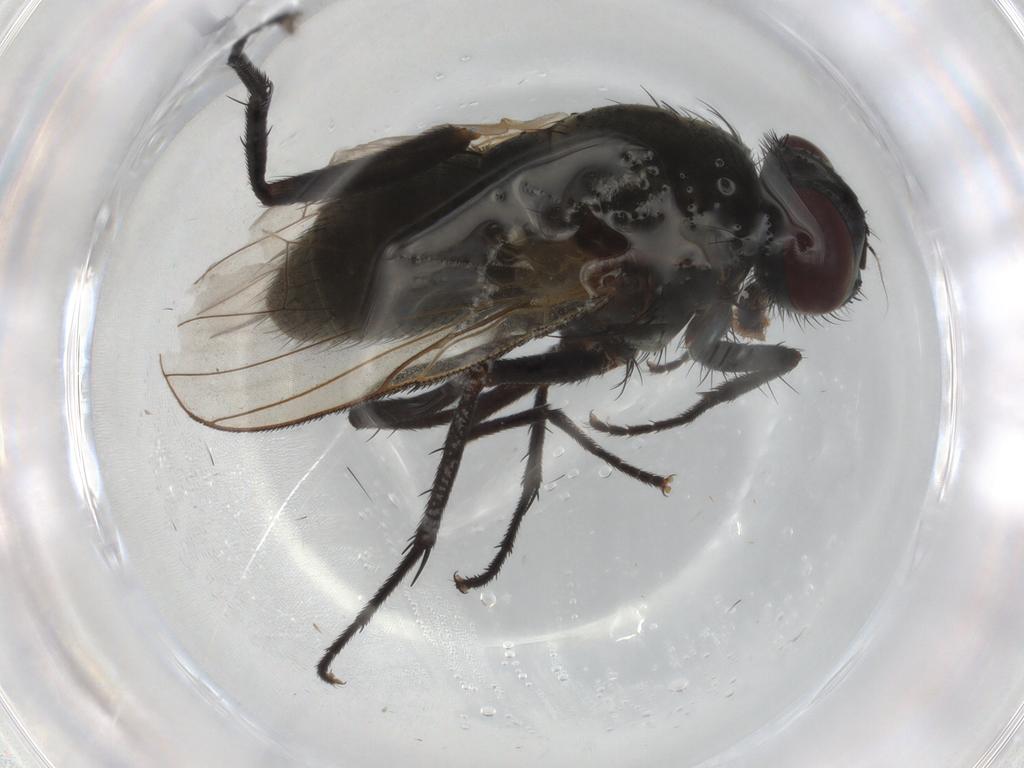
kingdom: Animalia
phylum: Arthropoda
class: Insecta
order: Diptera
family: Muscidae
